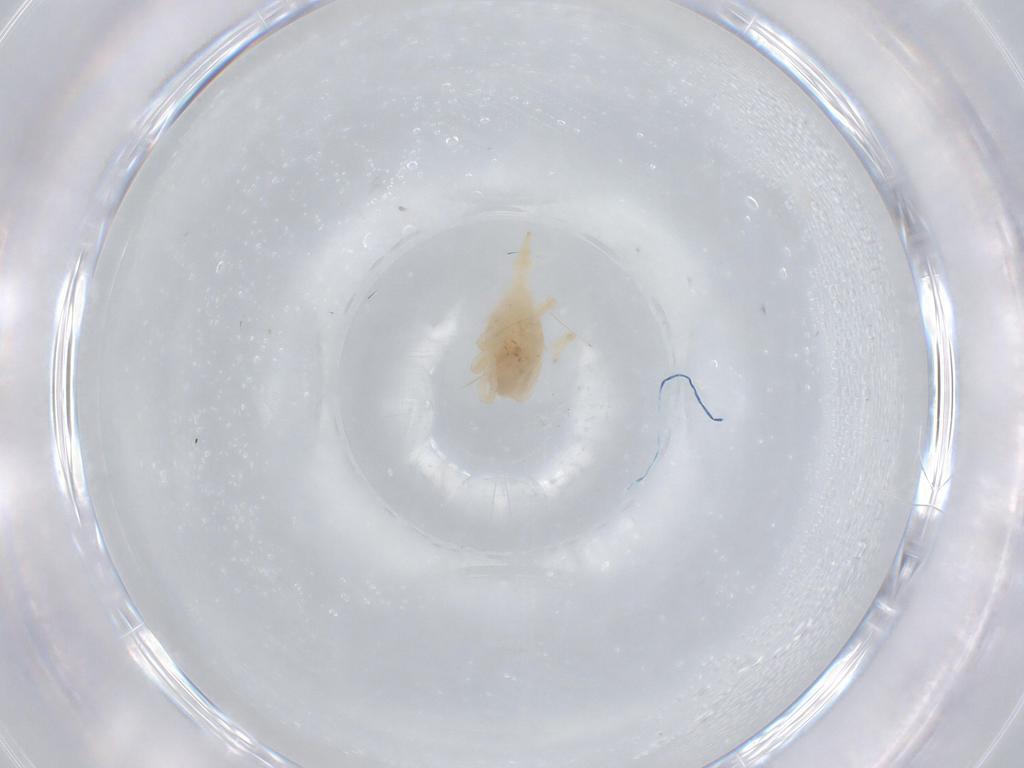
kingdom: Animalia
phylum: Arthropoda
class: Arachnida
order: Trombidiformes
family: Bdellidae
